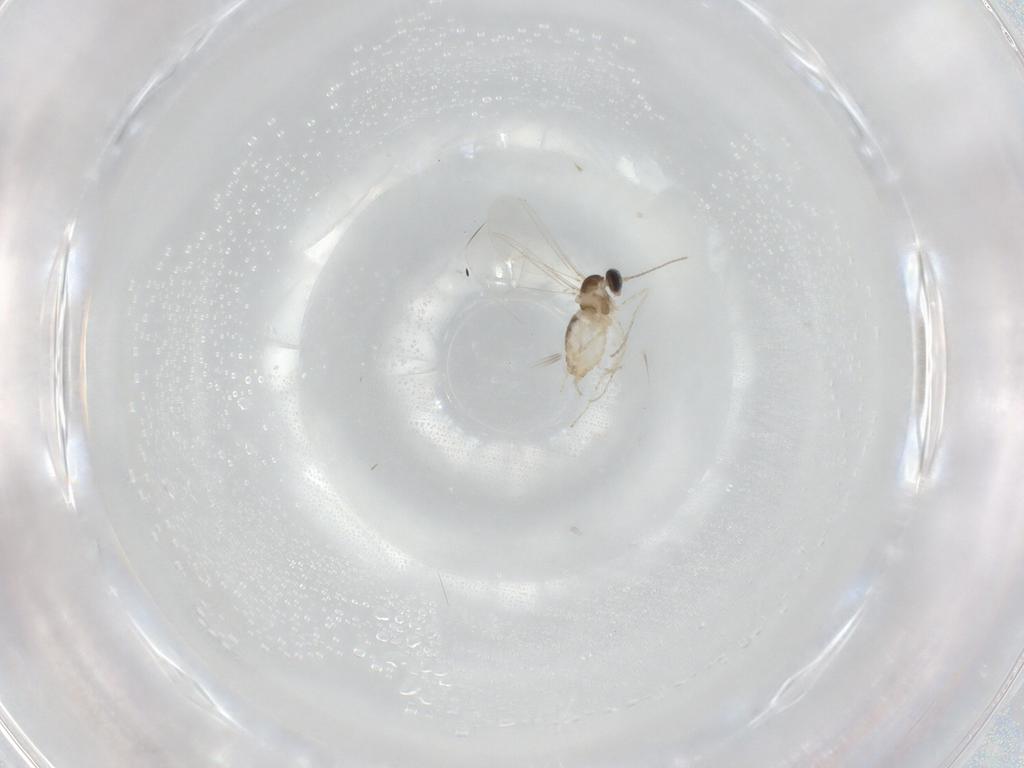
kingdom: Animalia
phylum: Arthropoda
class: Insecta
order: Diptera
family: Cecidomyiidae
